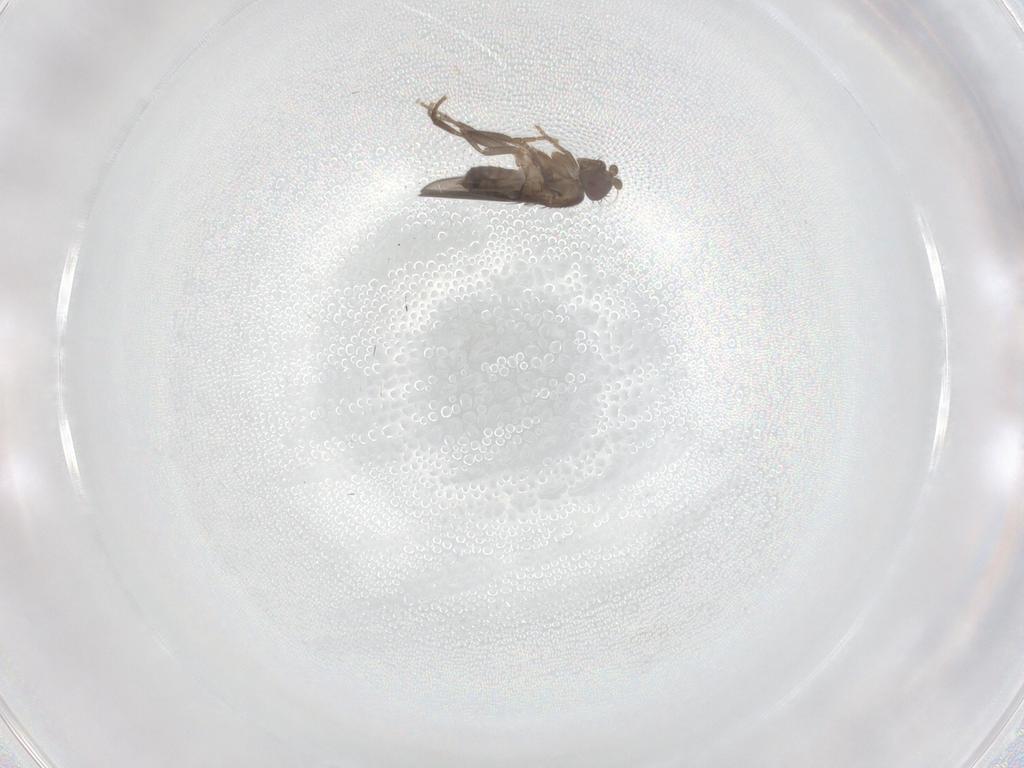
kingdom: Animalia
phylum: Arthropoda
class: Insecta
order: Diptera
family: Sphaeroceridae
